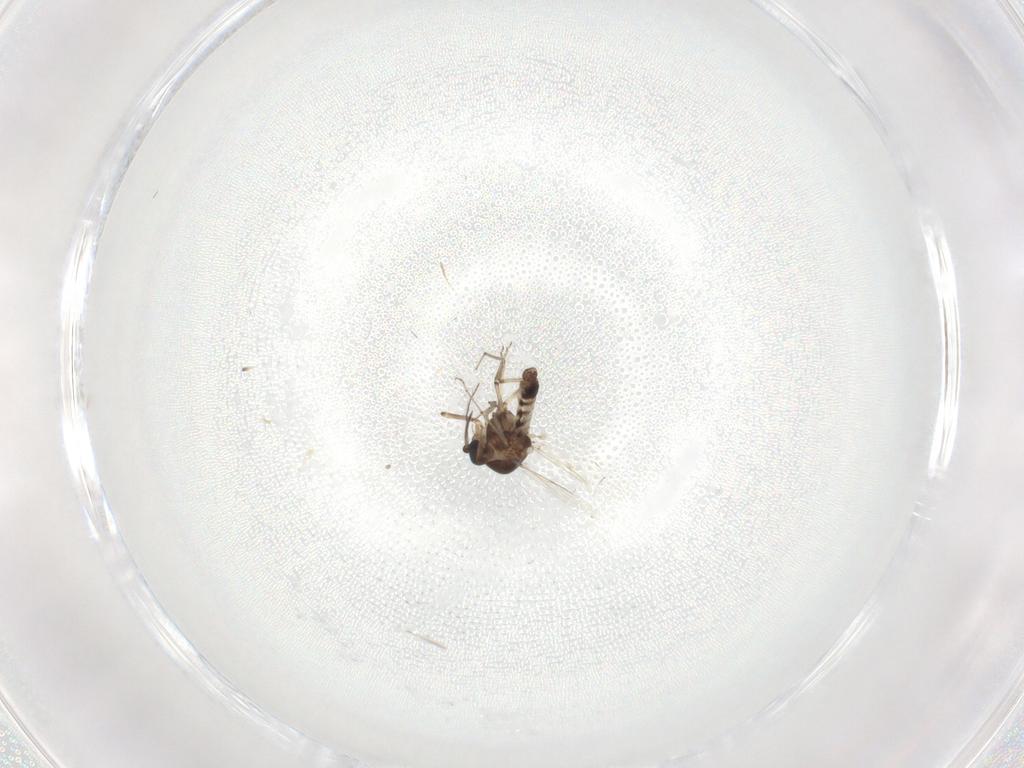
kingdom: Animalia
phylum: Arthropoda
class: Insecta
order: Diptera
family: Ceratopogonidae
